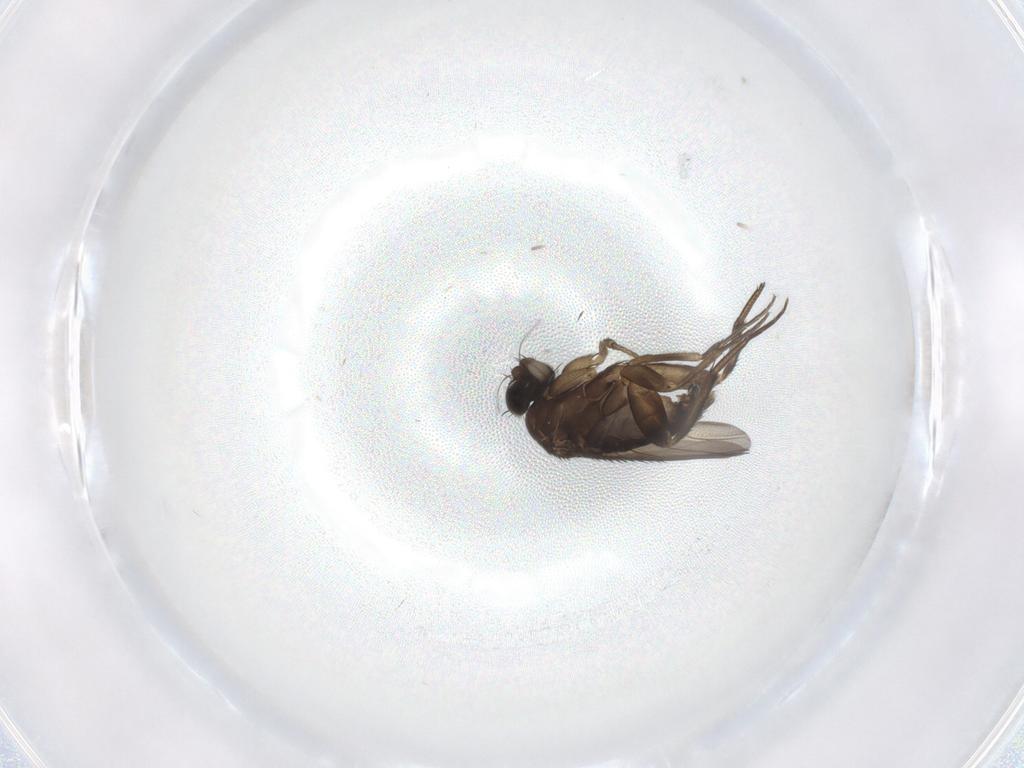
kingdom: Animalia
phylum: Arthropoda
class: Insecta
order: Diptera
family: Phoridae
